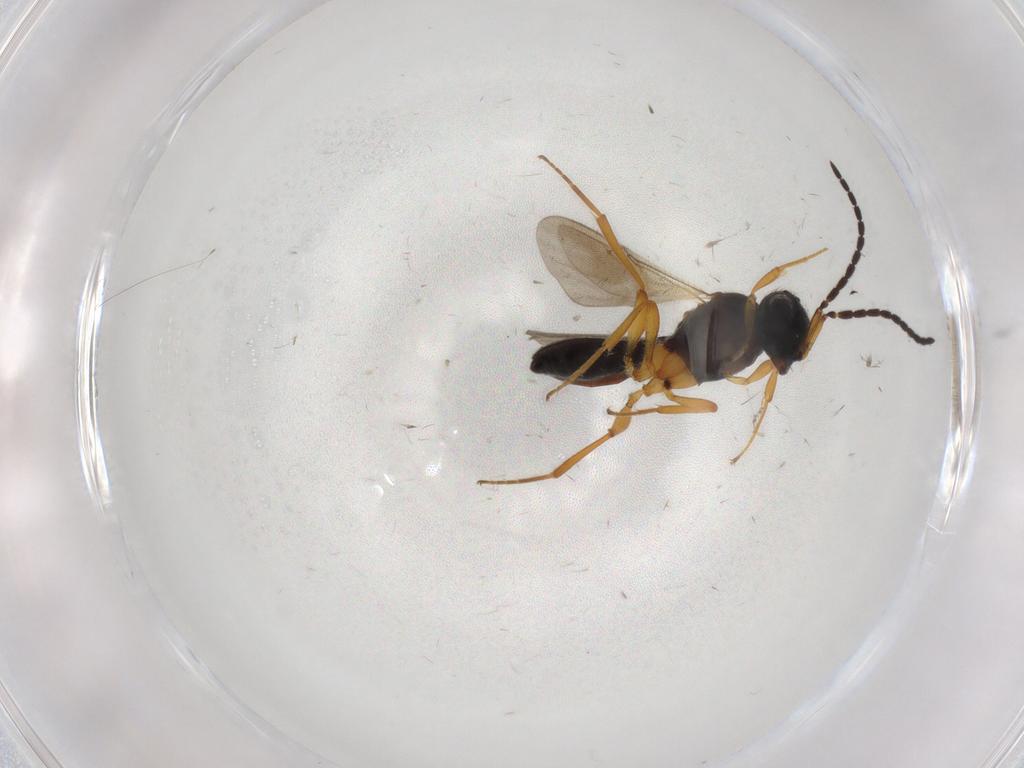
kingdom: Animalia
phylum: Arthropoda
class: Insecta
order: Hymenoptera
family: Scelionidae
